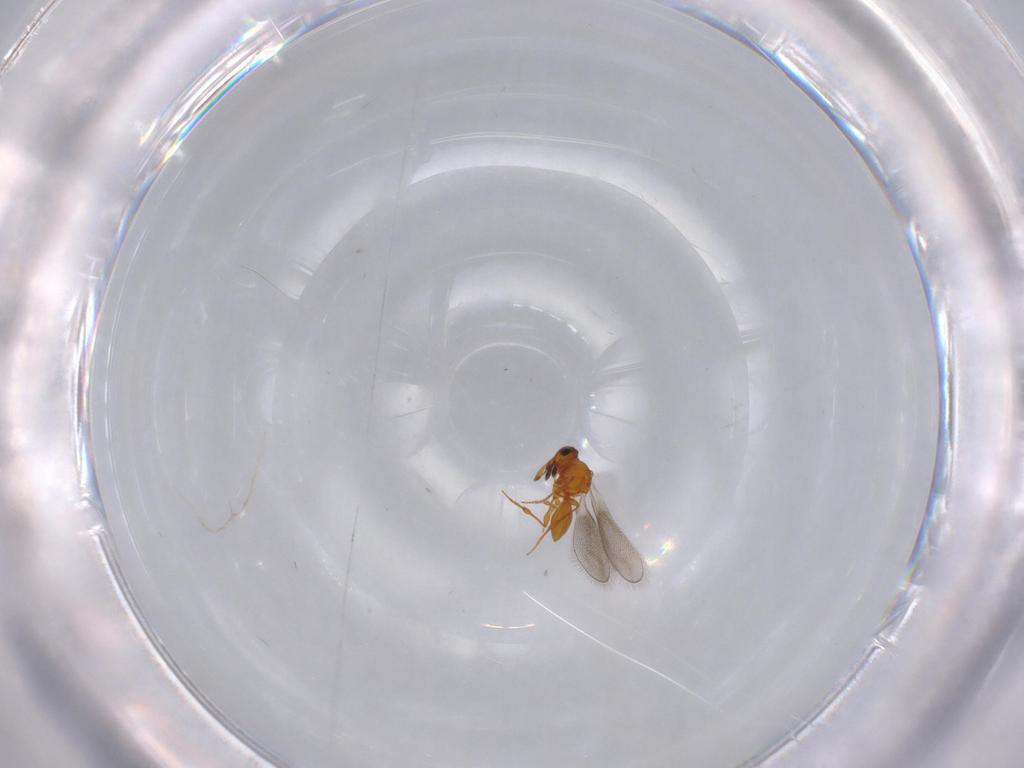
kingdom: Animalia
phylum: Arthropoda
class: Insecta
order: Hymenoptera
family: Platygastridae
